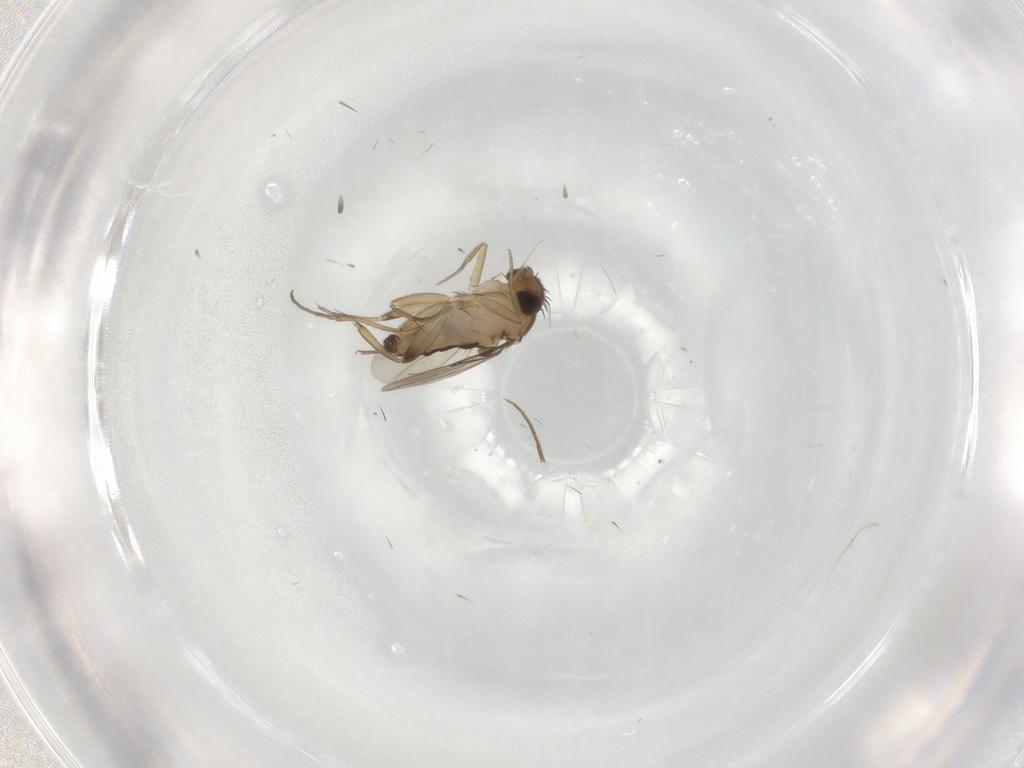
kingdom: Animalia
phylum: Arthropoda
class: Insecta
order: Diptera
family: Phoridae
